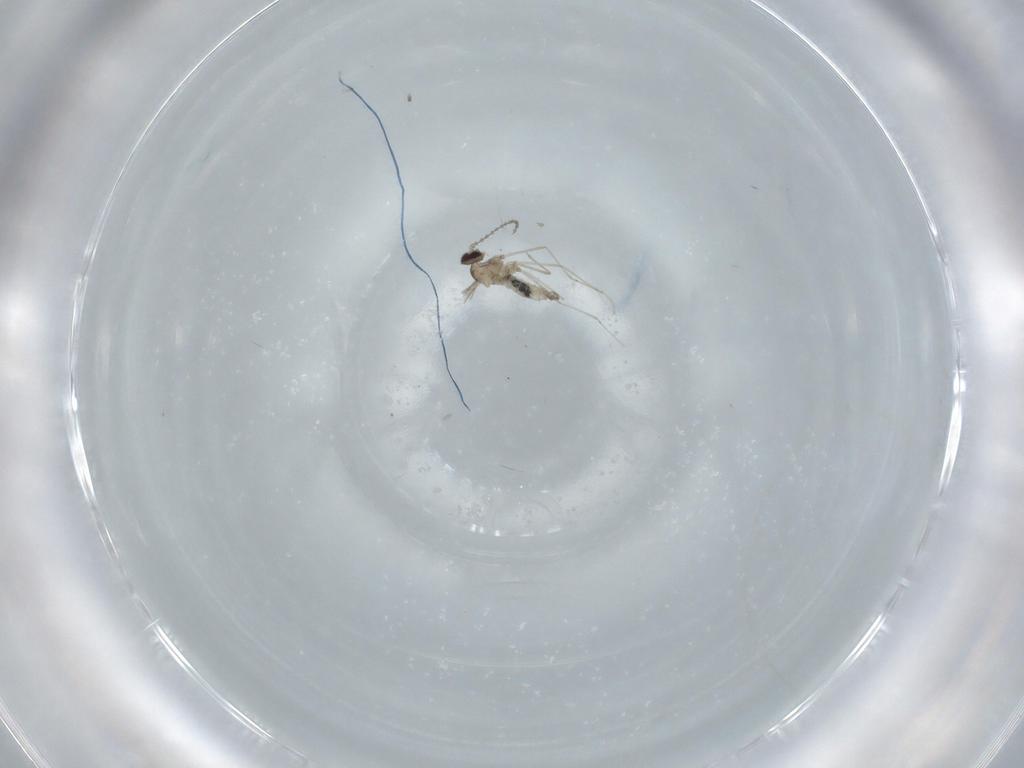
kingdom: Animalia
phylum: Arthropoda
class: Insecta
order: Diptera
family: Cecidomyiidae
